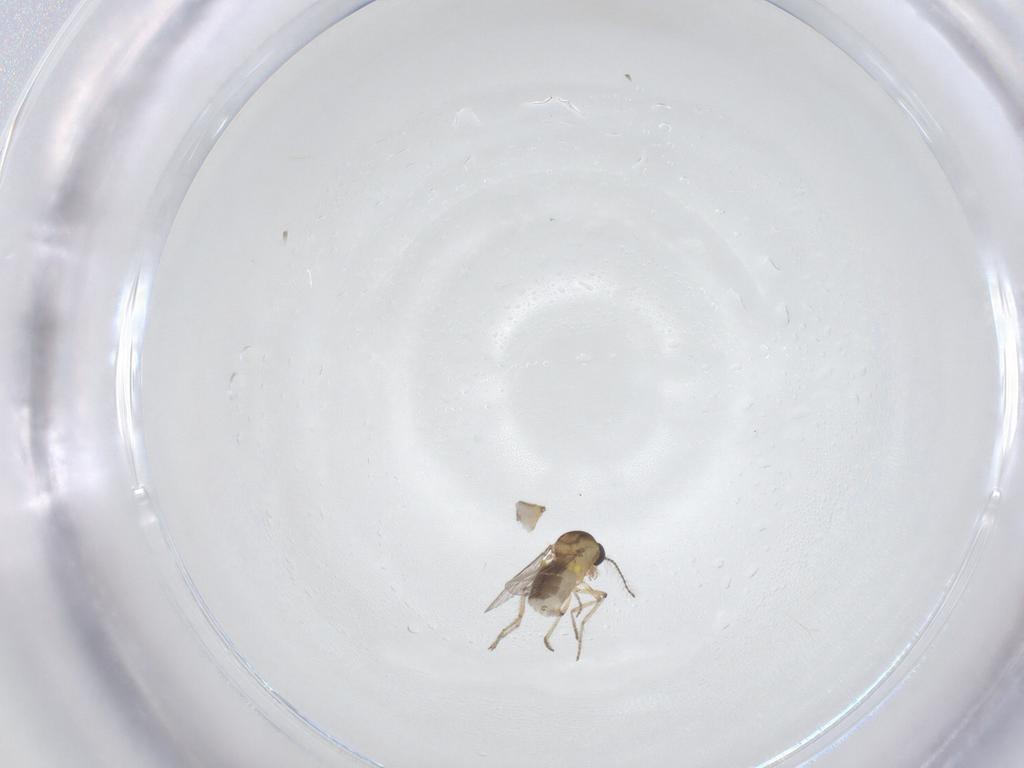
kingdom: Animalia
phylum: Arthropoda
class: Insecta
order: Diptera
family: Ceratopogonidae
